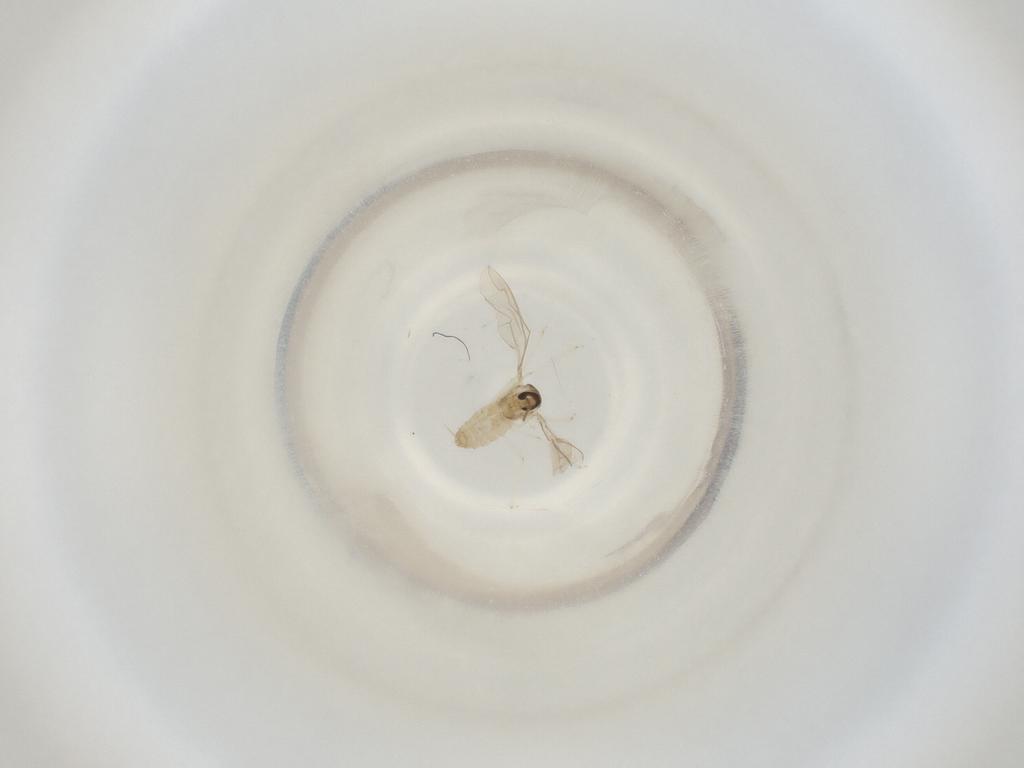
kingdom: Animalia
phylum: Arthropoda
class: Insecta
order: Diptera
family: Cecidomyiidae
